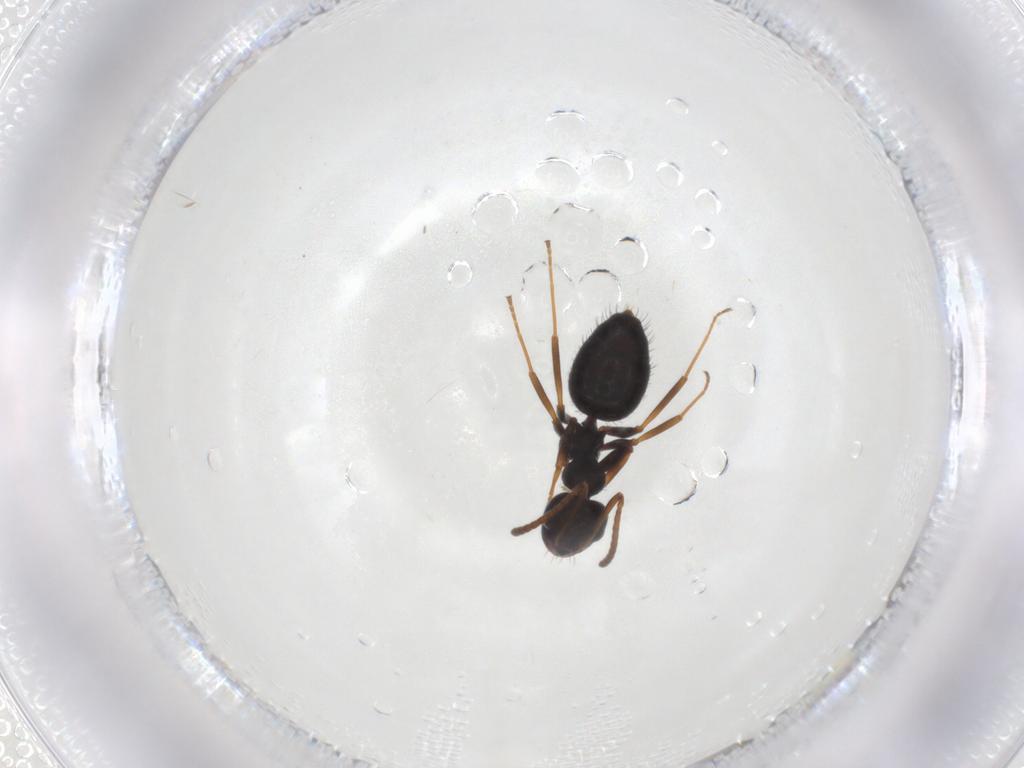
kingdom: Animalia
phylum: Arthropoda
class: Insecta
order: Hymenoptera
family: Formicidae
